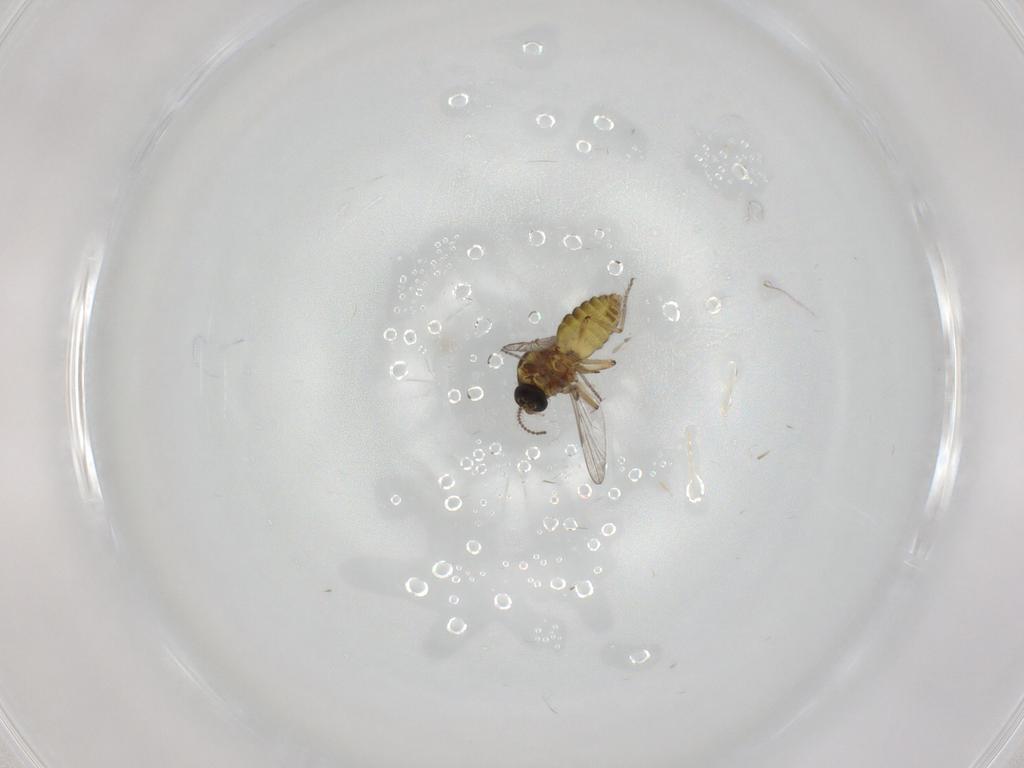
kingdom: Animalia
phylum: Arthropoda
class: Insecta
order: Diptera
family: Ceratopogonidae
